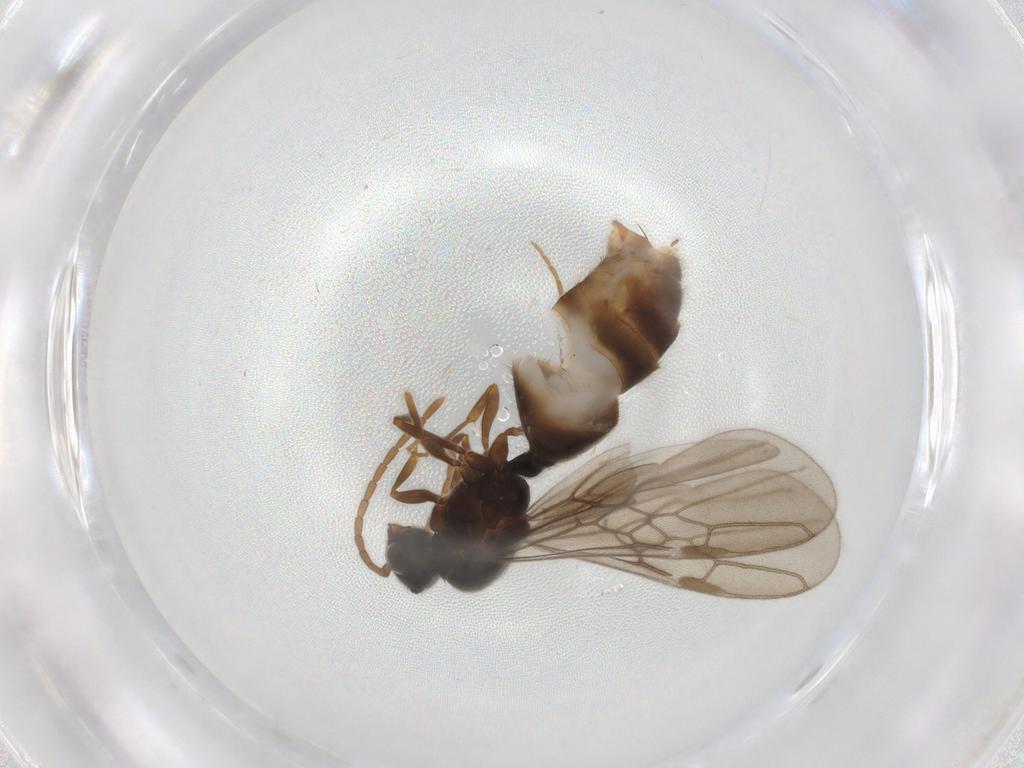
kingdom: Animalia
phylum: Arthropoda
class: Insecta
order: Hymenoptera
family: Formicidae
